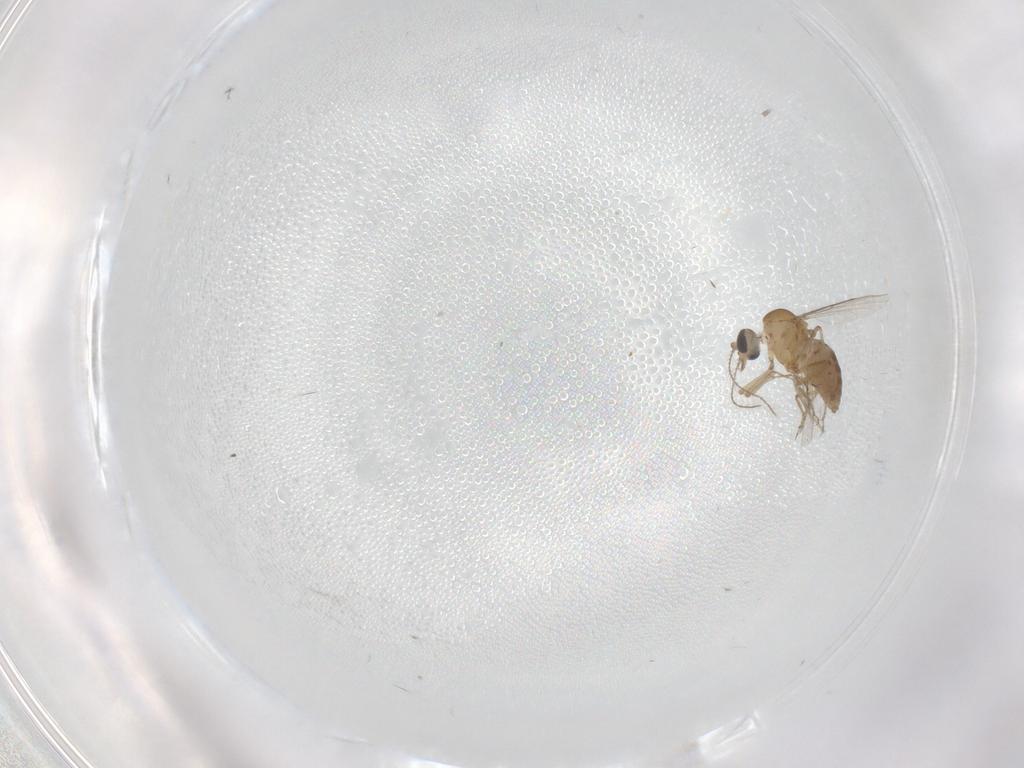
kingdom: Animalia
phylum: Arthropoda
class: Insecta
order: Diptera
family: Ceratopogonidae
